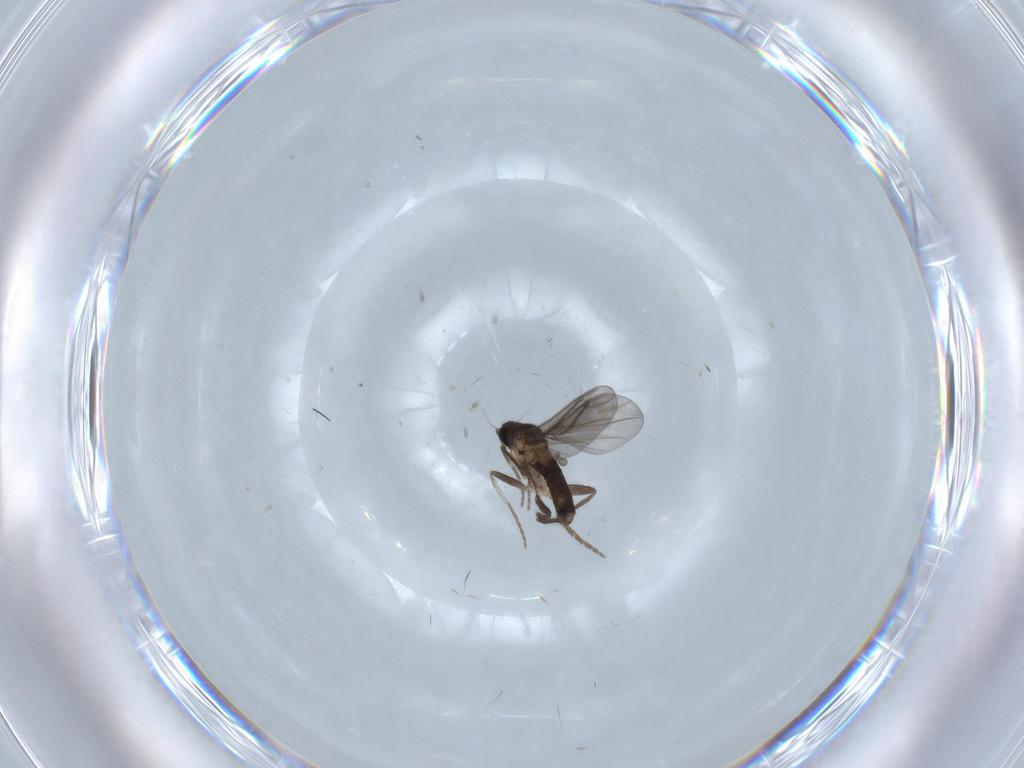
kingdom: Animalia
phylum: Arthropoda
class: Insecta
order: Diptera
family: Phoridae
